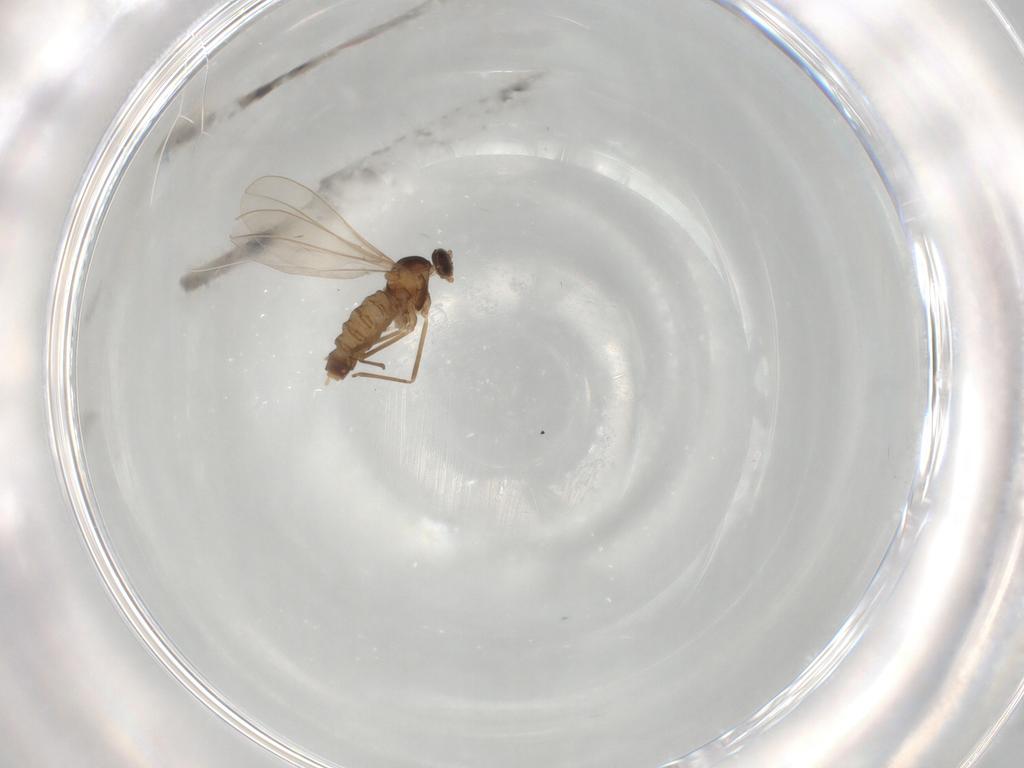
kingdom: Animalia
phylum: Arthropoda
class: Insecta
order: Diptera
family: Cecidomyiidae
